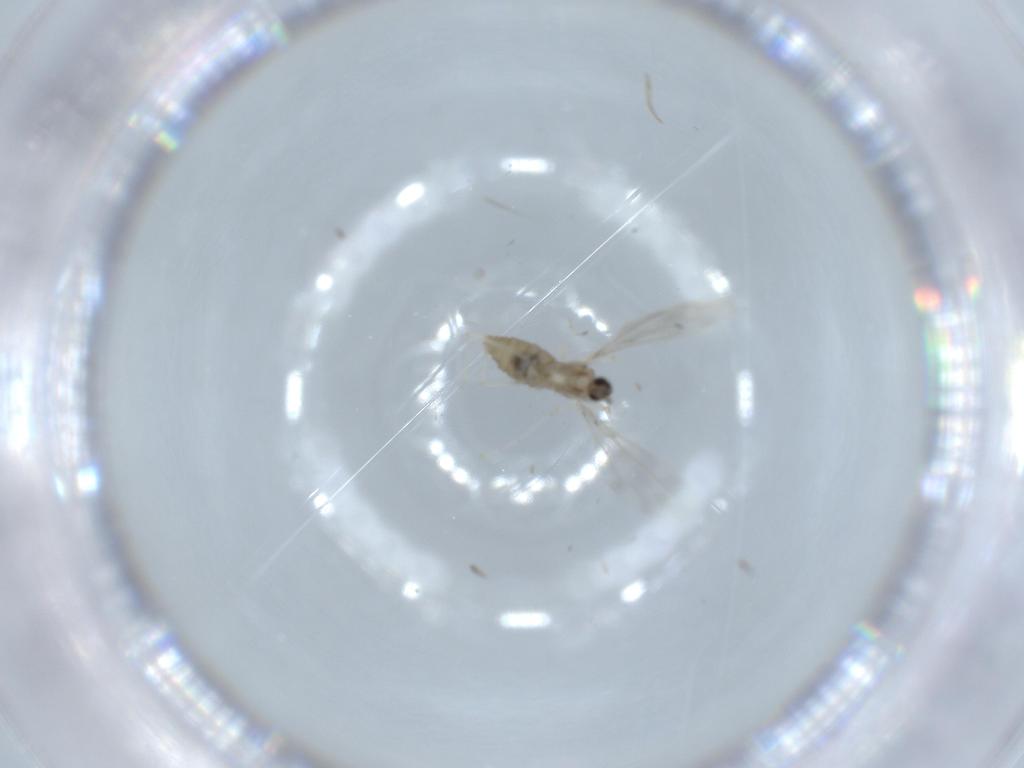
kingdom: Animalia
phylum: Arthropoda
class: Insecta
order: Diptera
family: Cecidomyiidae
